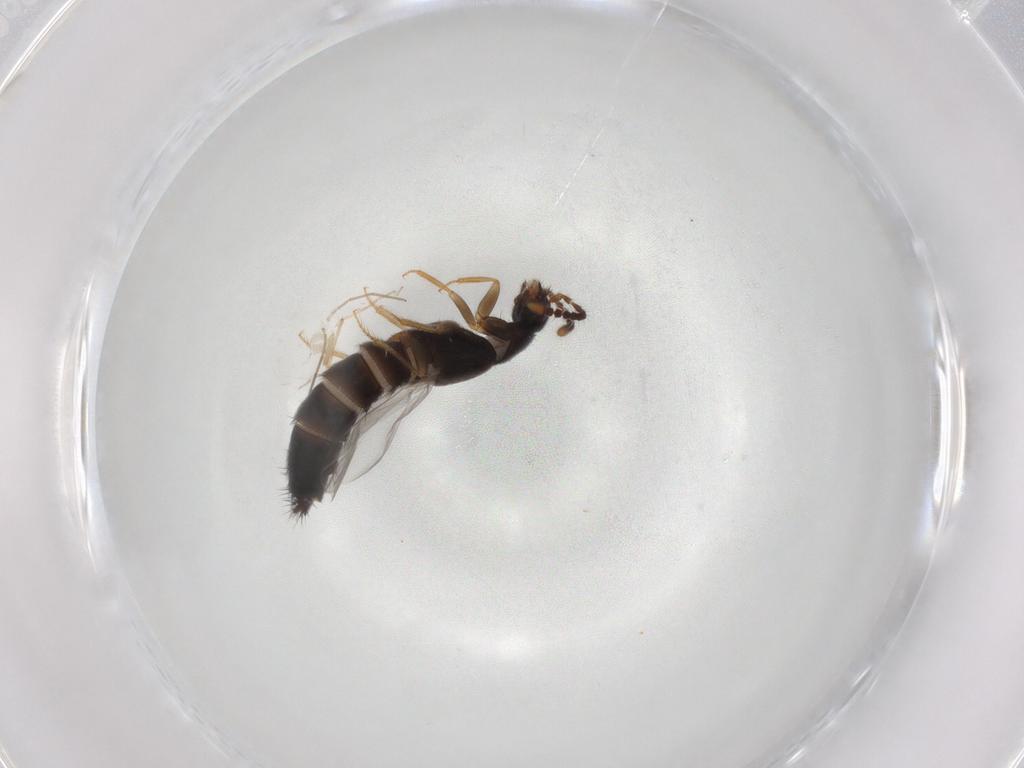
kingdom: Animalia
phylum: Arthropoda
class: Insecta
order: Coleoptera
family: Staphylinidae
